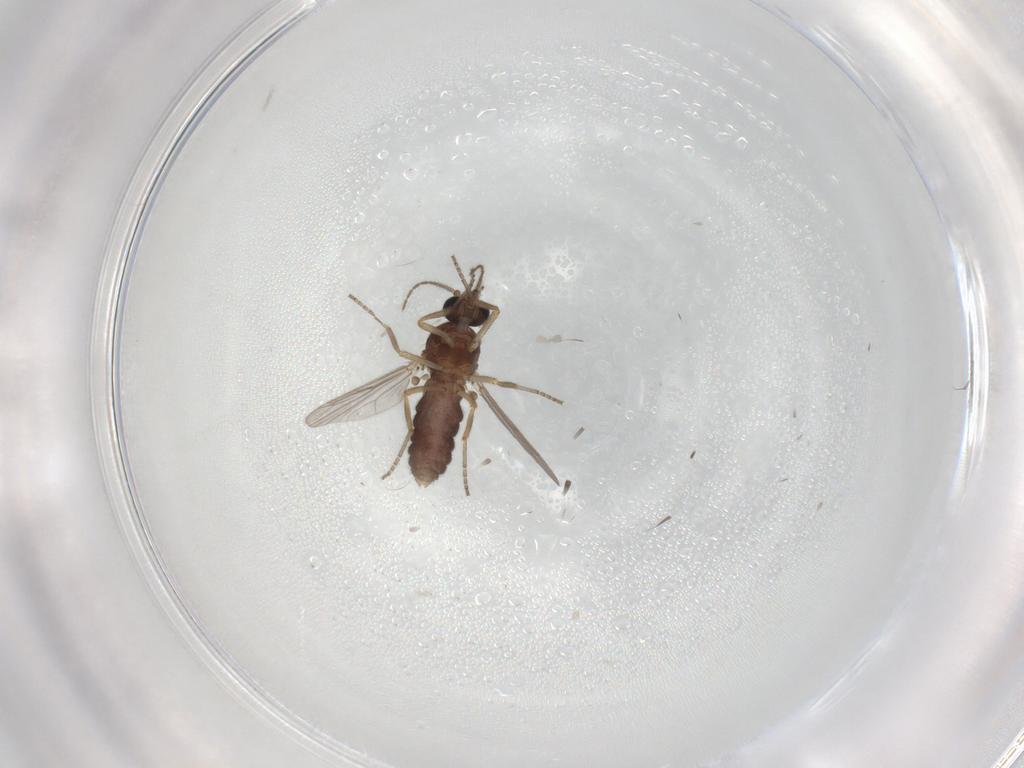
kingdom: Animalia
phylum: Arthropoda
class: Insecta
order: Diptera
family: Ceratopogonidae
